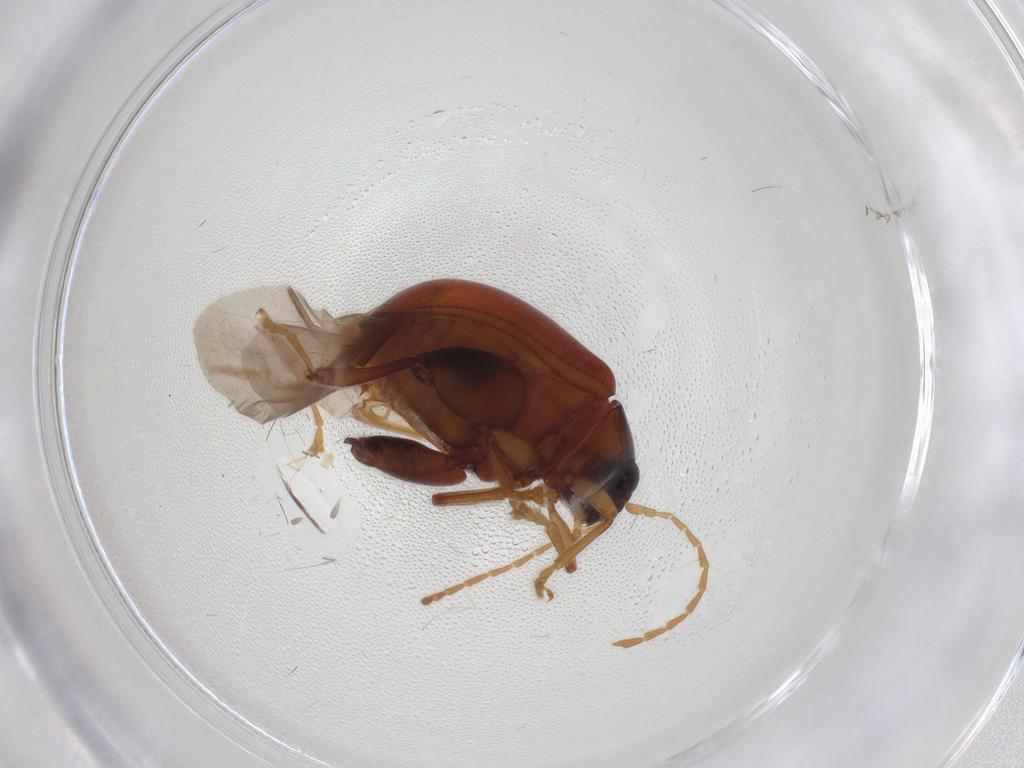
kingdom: Animalia
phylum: Arthropoda
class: Insecta
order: Coleoptera
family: Chrysomelidae
